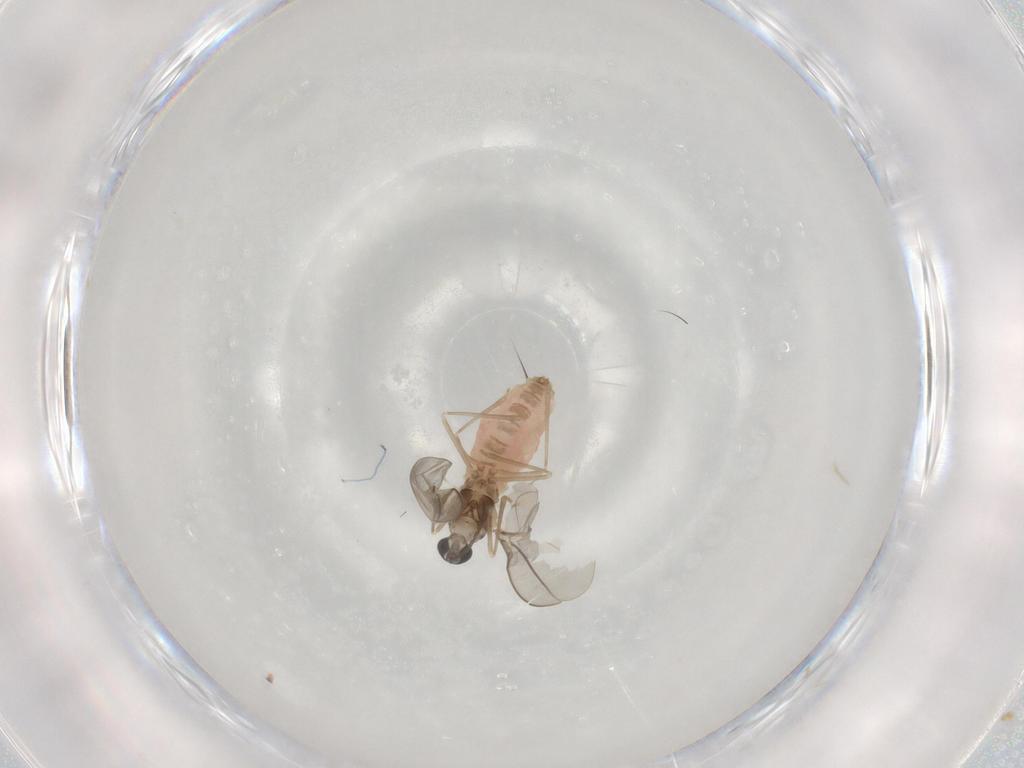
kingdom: Animalia
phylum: Arthropoda
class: Insecta
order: Diptera
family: Cecidomyiidae
